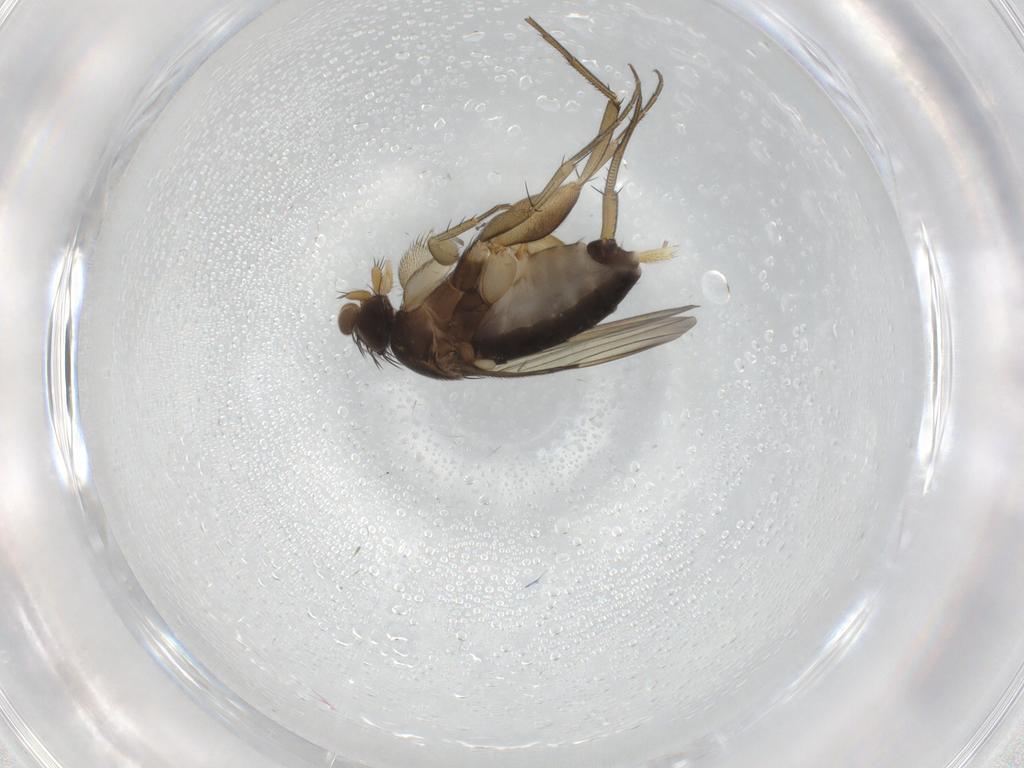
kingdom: Animalia
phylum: Arthropoda
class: Insecta
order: Diptera
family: Phoridae
